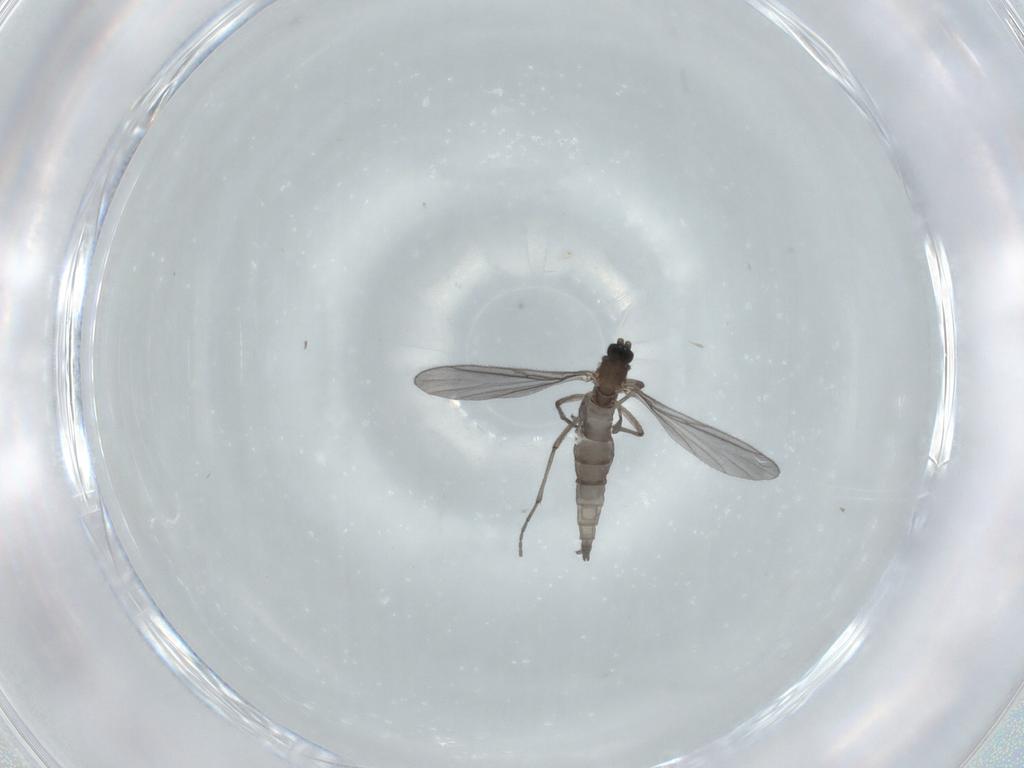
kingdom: Animalia
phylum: Arthropoda
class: Insecta
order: Diptera
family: Sciaridae
